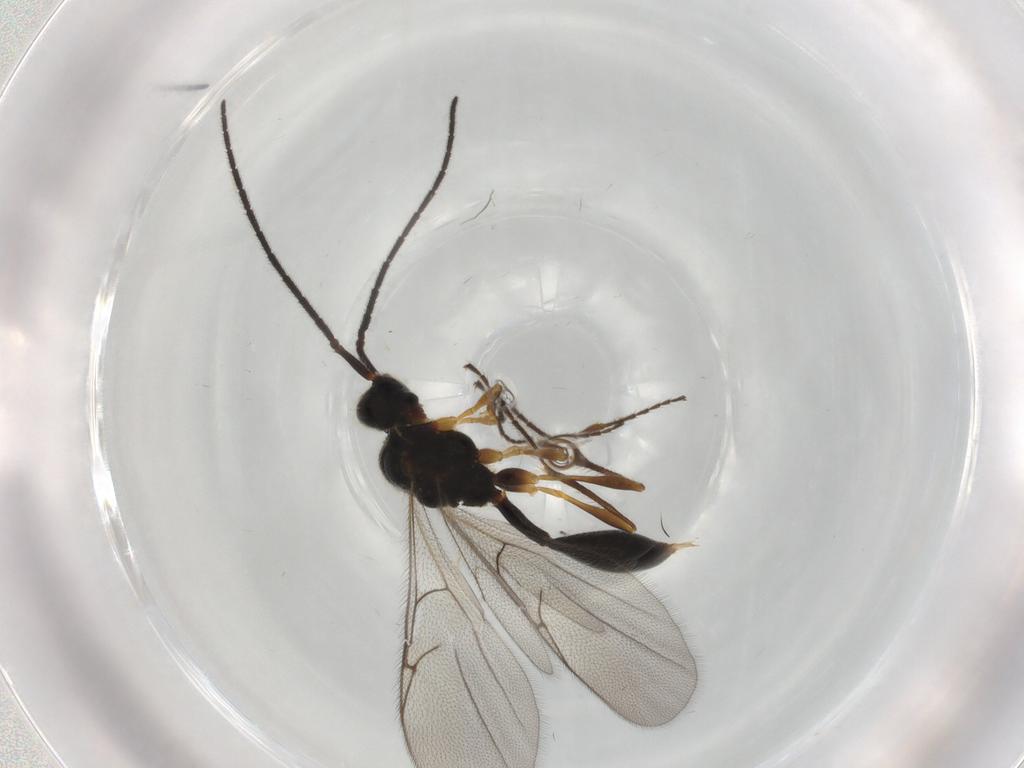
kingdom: Animalia
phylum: Arthropoda
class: Insecta
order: Hymenoptera
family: Diapriidae
